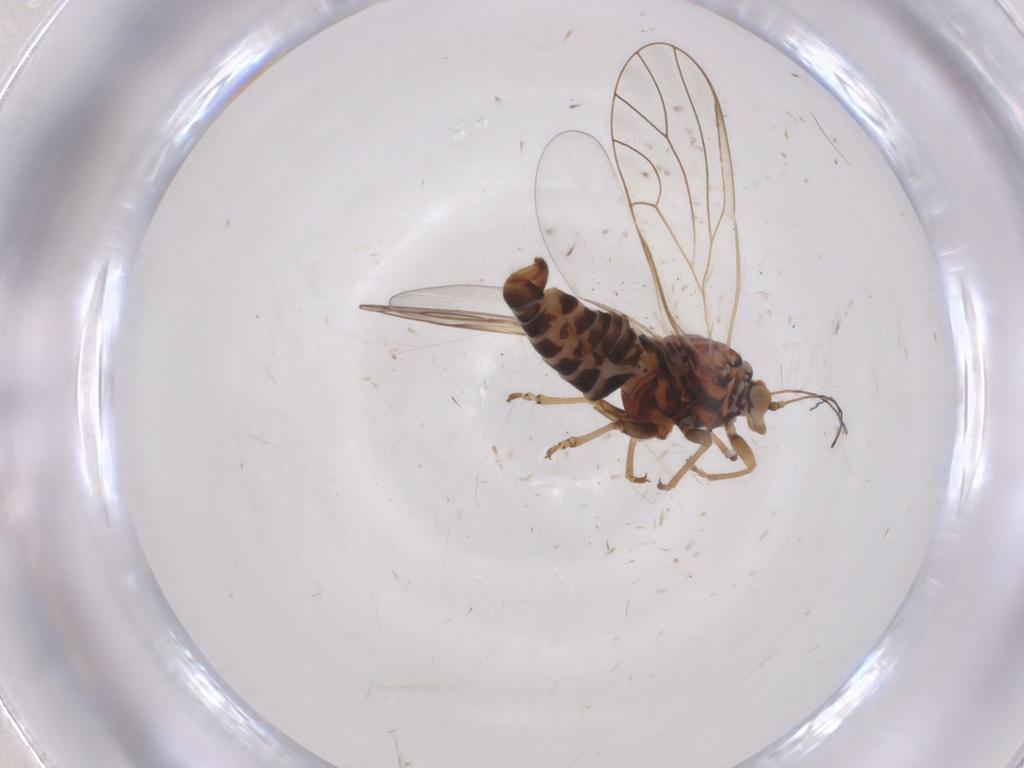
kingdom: Animalia
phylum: Arthropoda
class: Insecta
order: Hemiptera
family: Psyllidae
